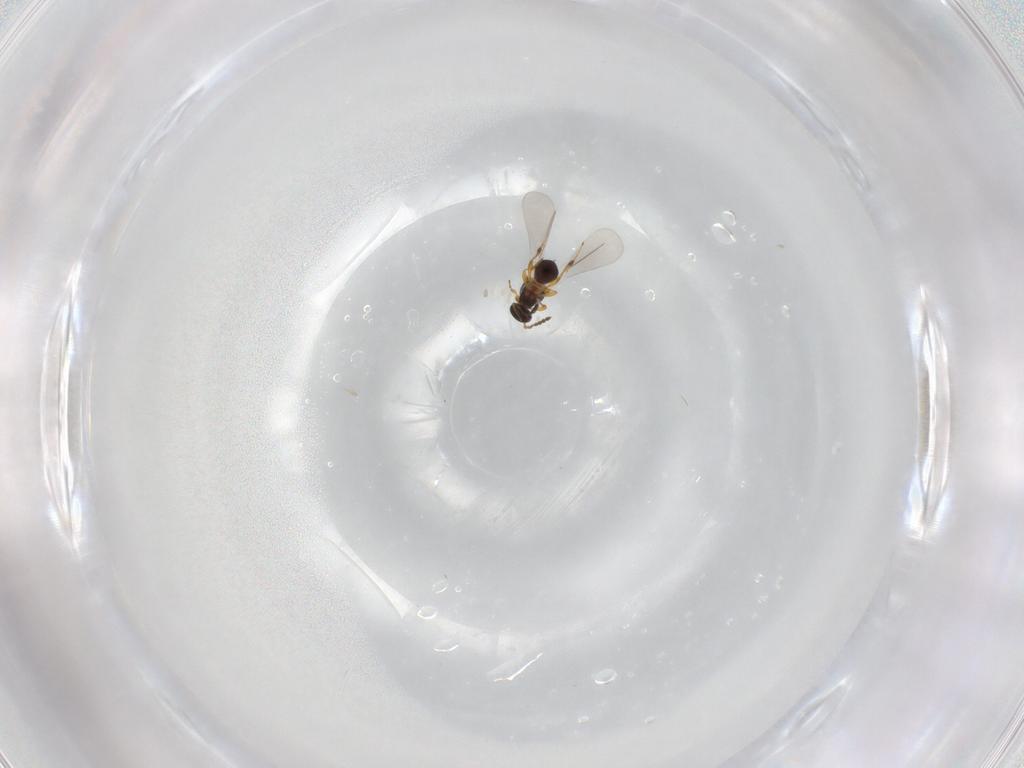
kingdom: Animalia
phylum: Arthropoda
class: Insecta
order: Hymenoptera
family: Platygastridae
